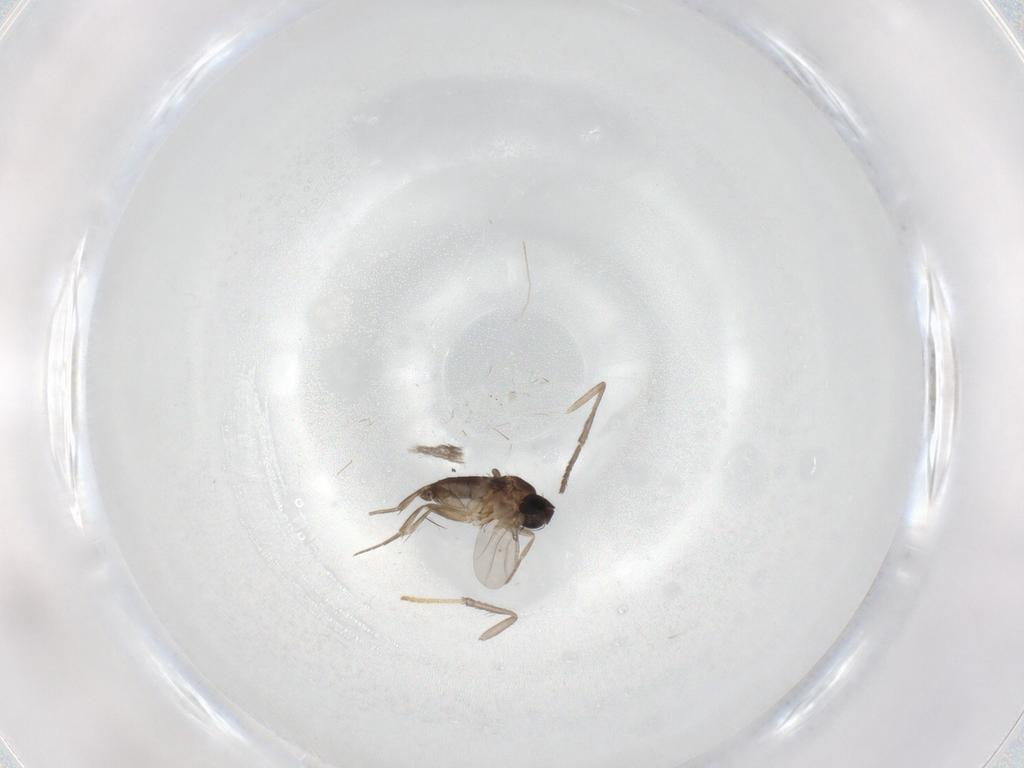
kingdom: Animalia
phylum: Arthropoda
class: Insecta
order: Diptera
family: Phoridae
